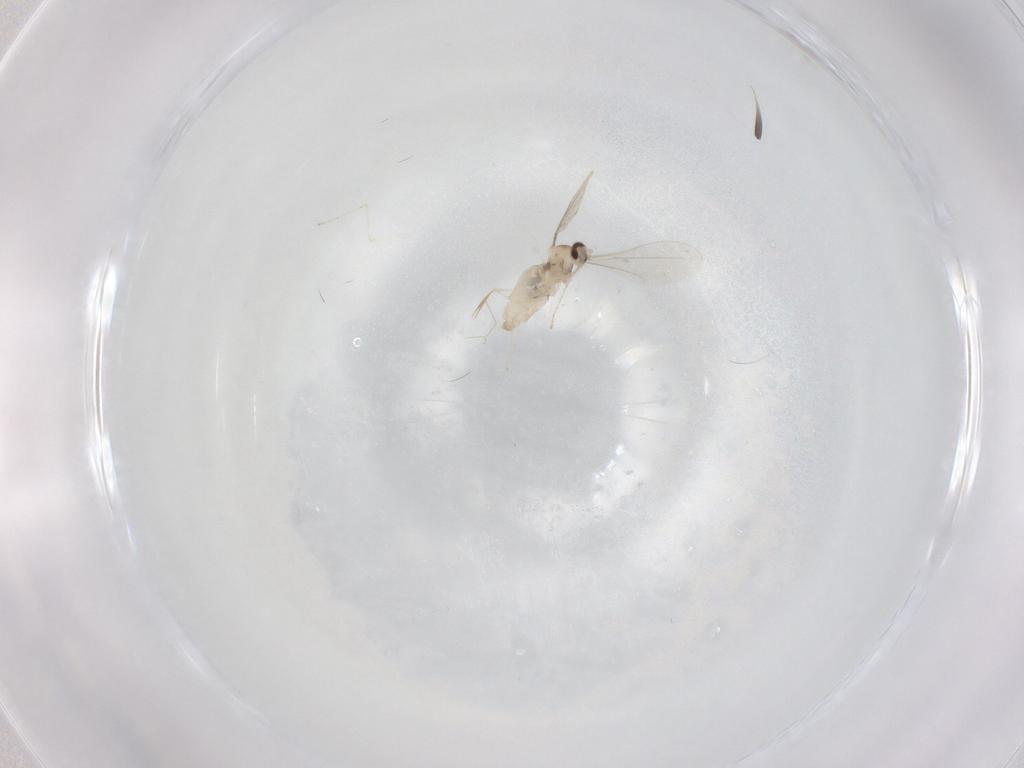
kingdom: Animalia
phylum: Arthropoda
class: Insecta
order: Diptera
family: Cecidomyiidae
